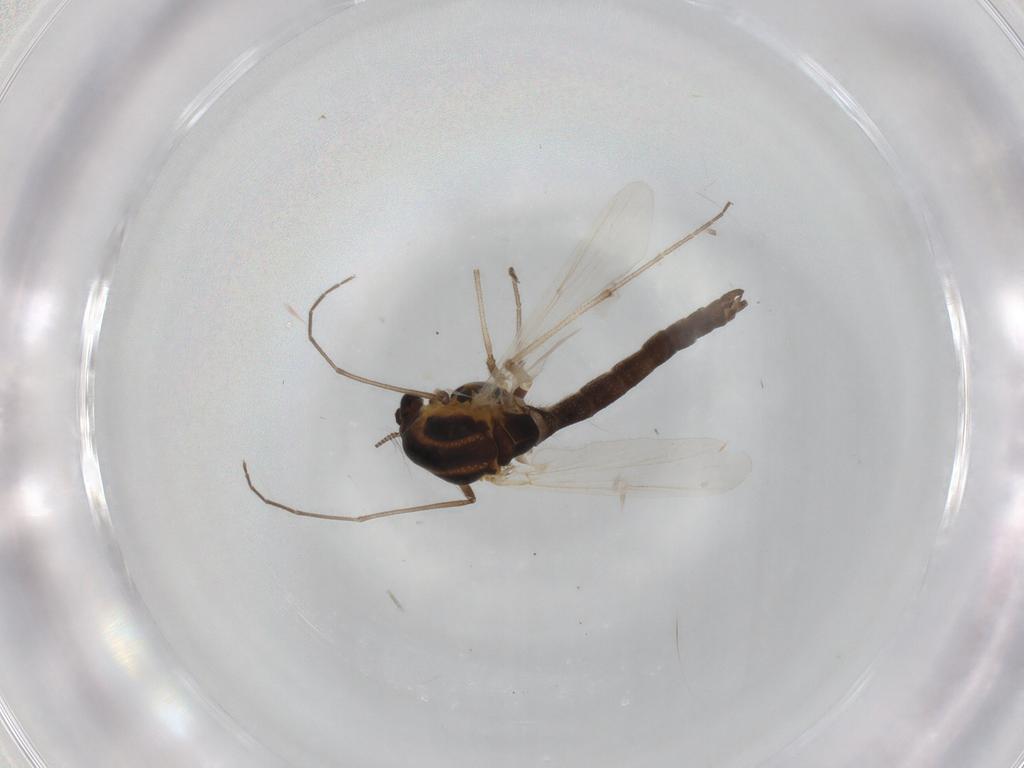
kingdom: Animalia
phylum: Arthropoda
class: Insecta
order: Diptera
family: Chironomidae
